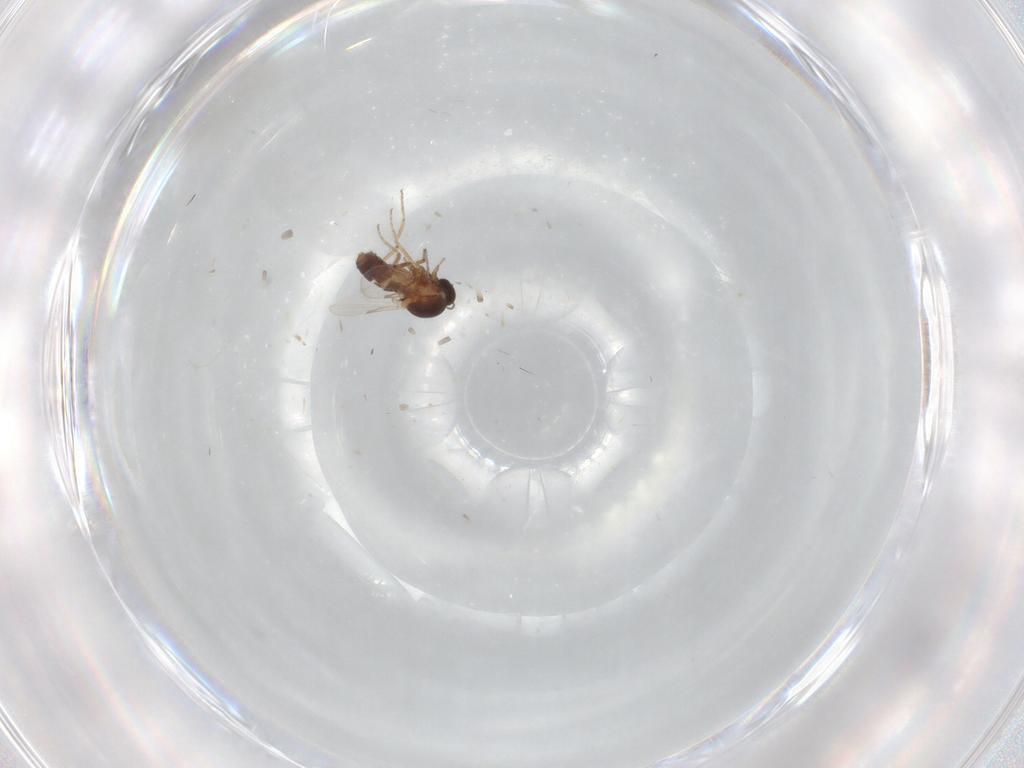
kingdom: Animalia
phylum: Arthropoda
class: Insecta
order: Diptera
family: Ceratopogonidae
